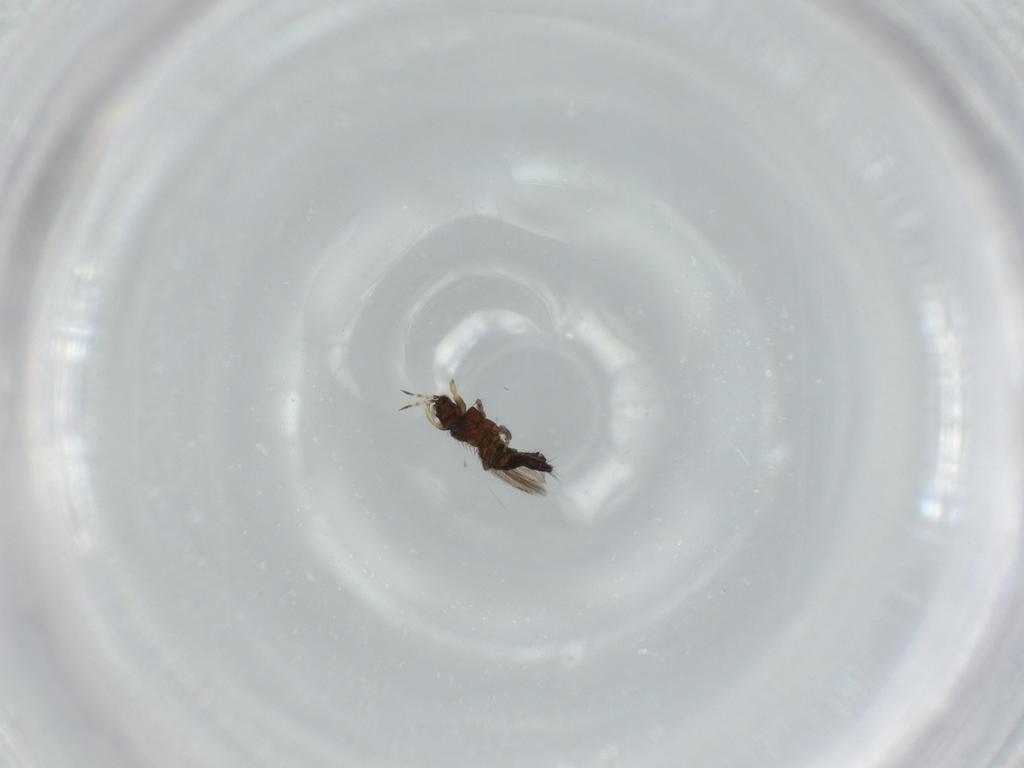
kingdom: Animalia
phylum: Arthropoda
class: Insecta
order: Thysanoptera
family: Thripidae
